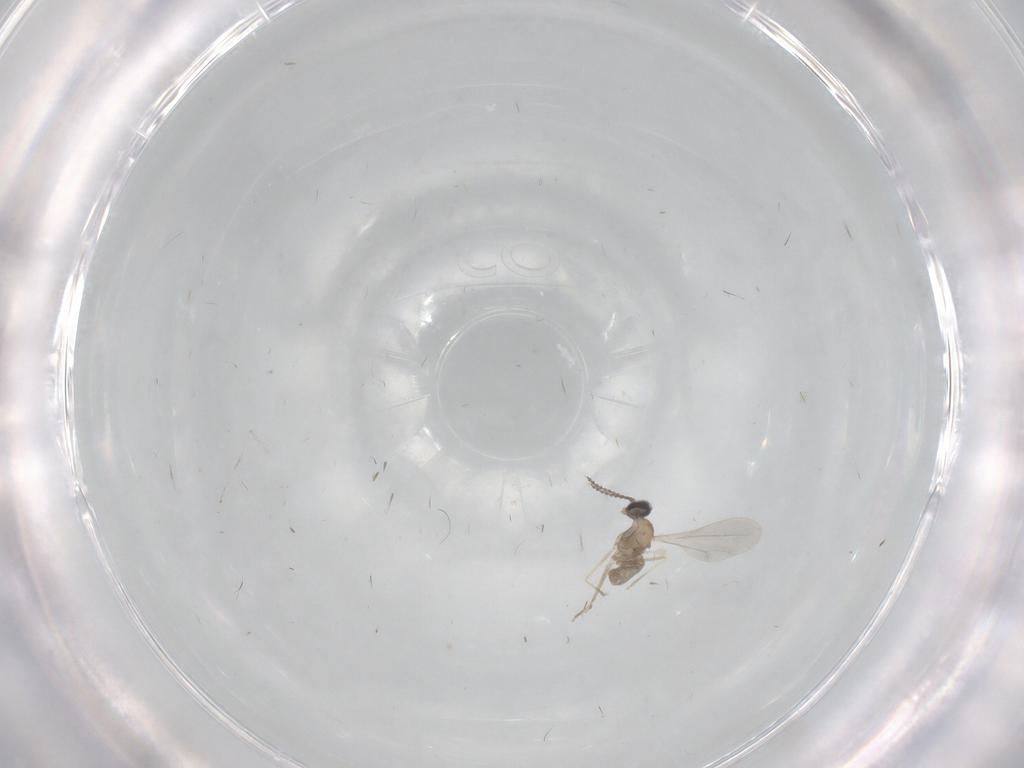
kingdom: Animalia
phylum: Arthropoda
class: Insecta
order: Diptera
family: Cecidomyiidae
